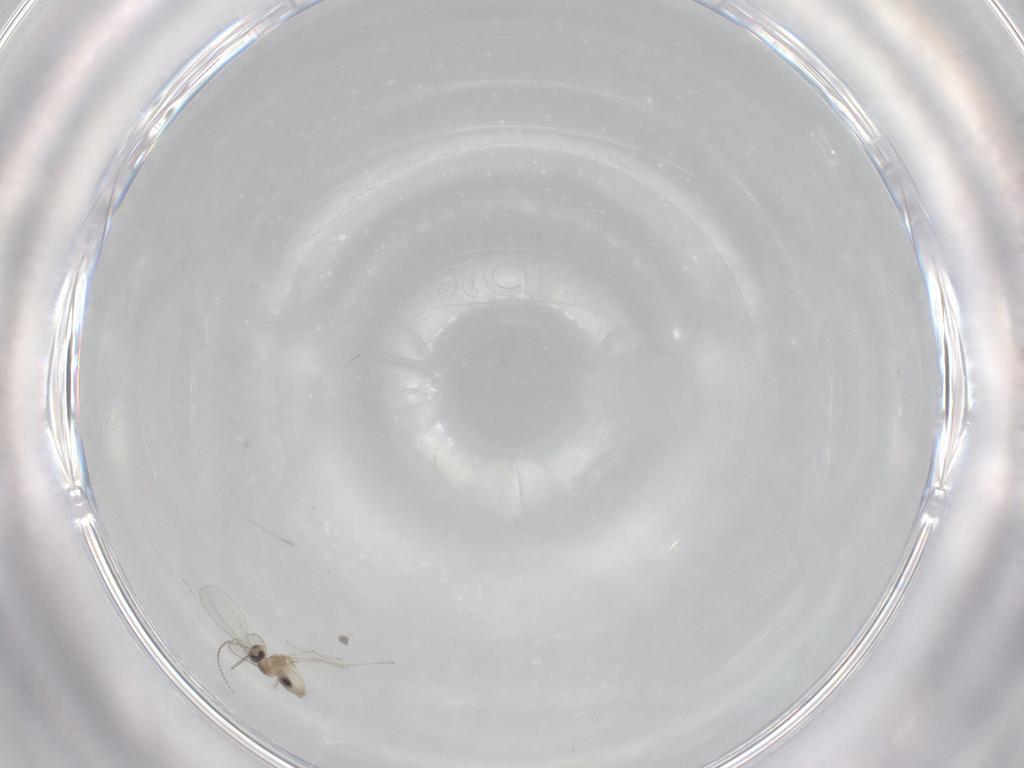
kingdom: Animalia
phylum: Arthropoda
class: Insecta
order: Diptera
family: Cecidomyiidae
